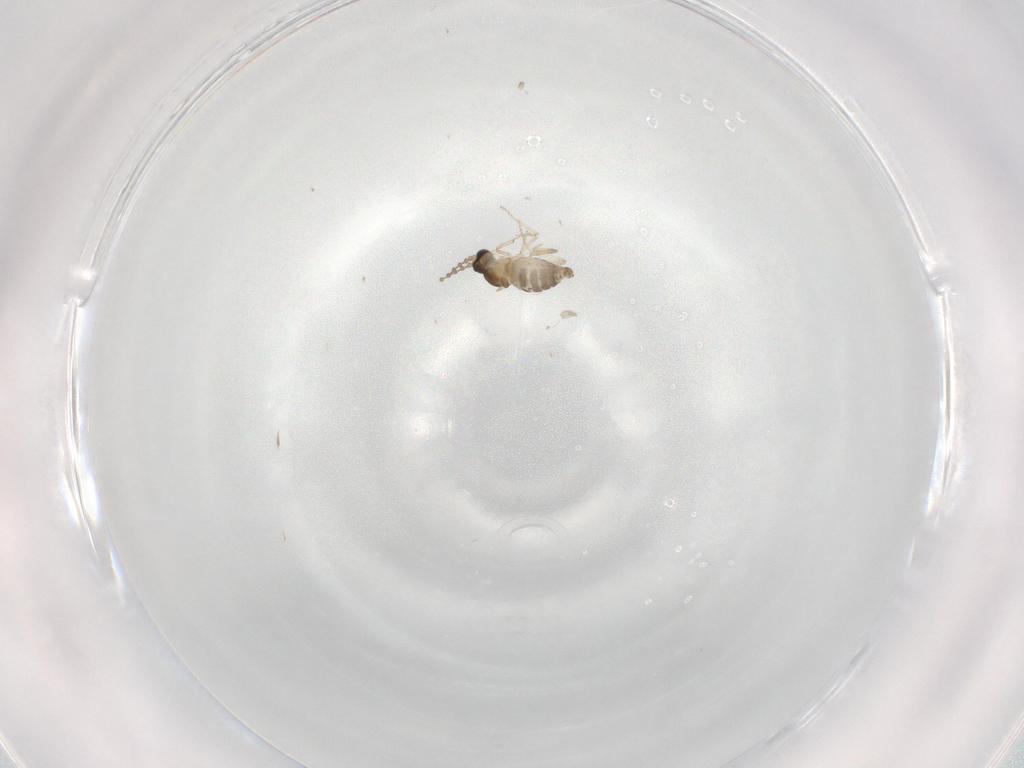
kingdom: Animalia
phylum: Arthropoda
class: Insecta
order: Diptera
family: Cecidomyiidae
